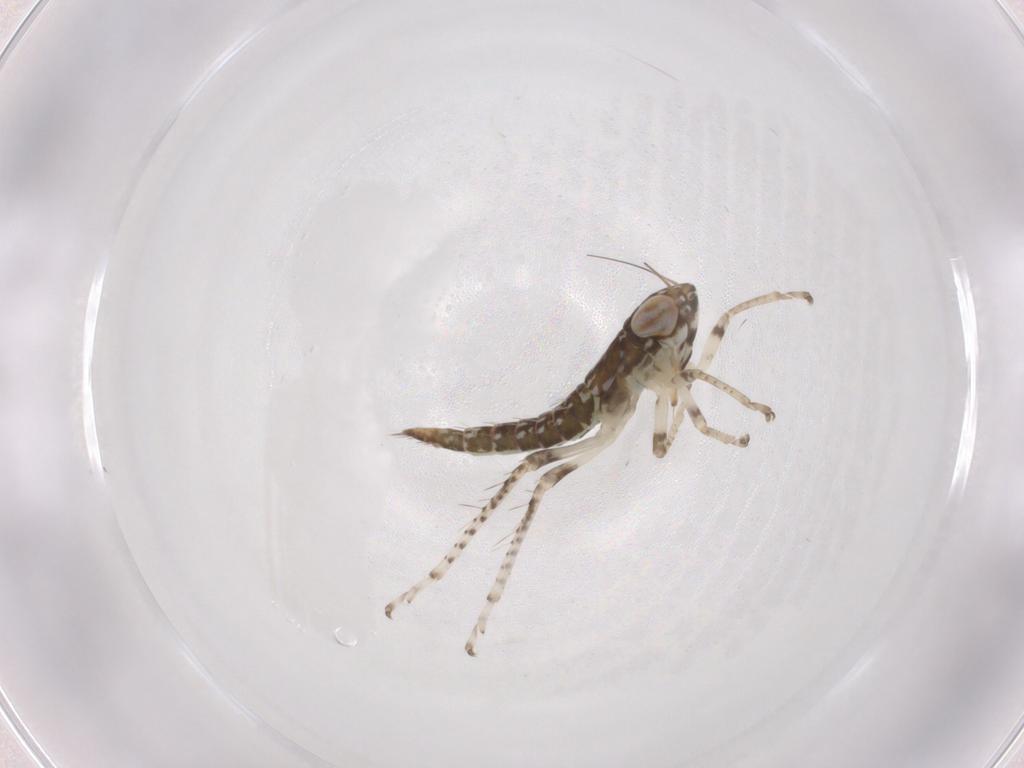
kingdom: Animalia
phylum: Arthropoda
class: Insecta
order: Hemiptera
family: Cicadellidae
